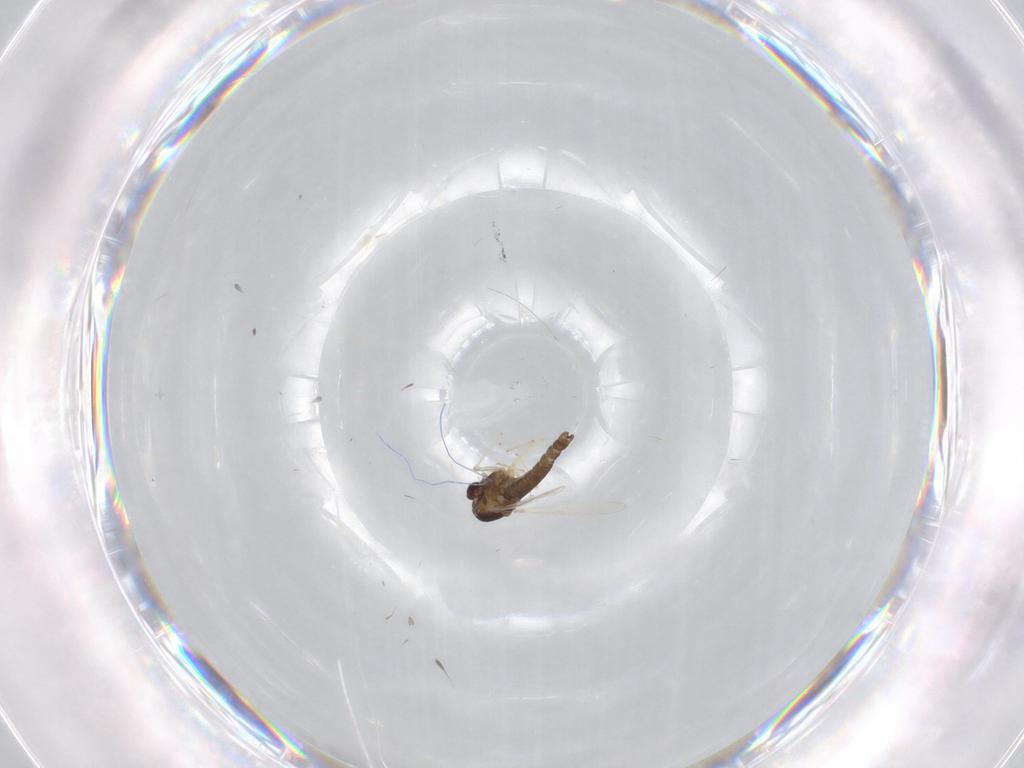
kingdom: Animalia
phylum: Arthropoda
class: Insecta
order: Diptera
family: Chironomidae
